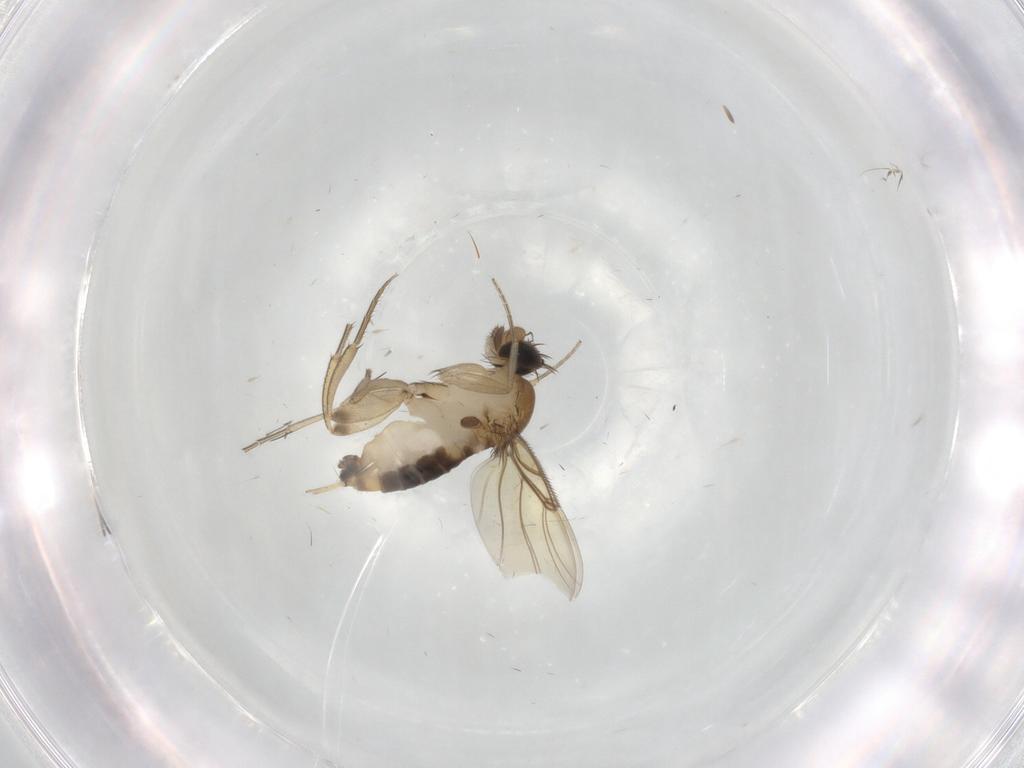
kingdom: Animalia
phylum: Arthropoda
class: Insecta
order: Diptera
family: Phoridae
